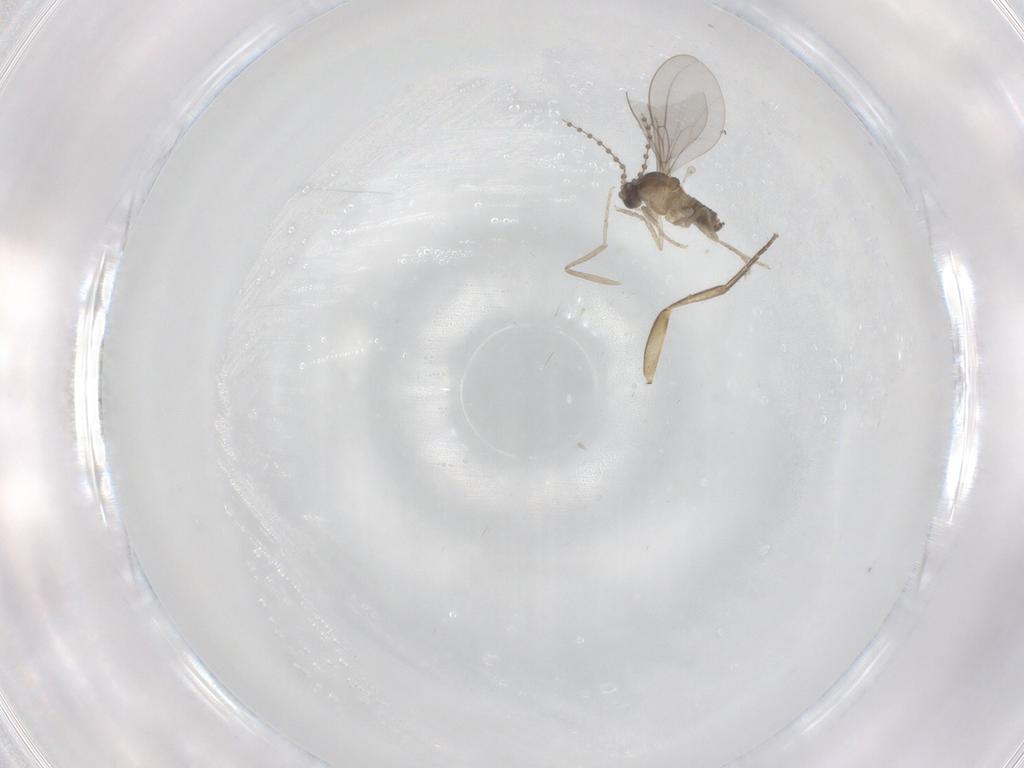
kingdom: Animalia
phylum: Arthropoda
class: Insecta
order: Diptera
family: Cecidomyiidae
